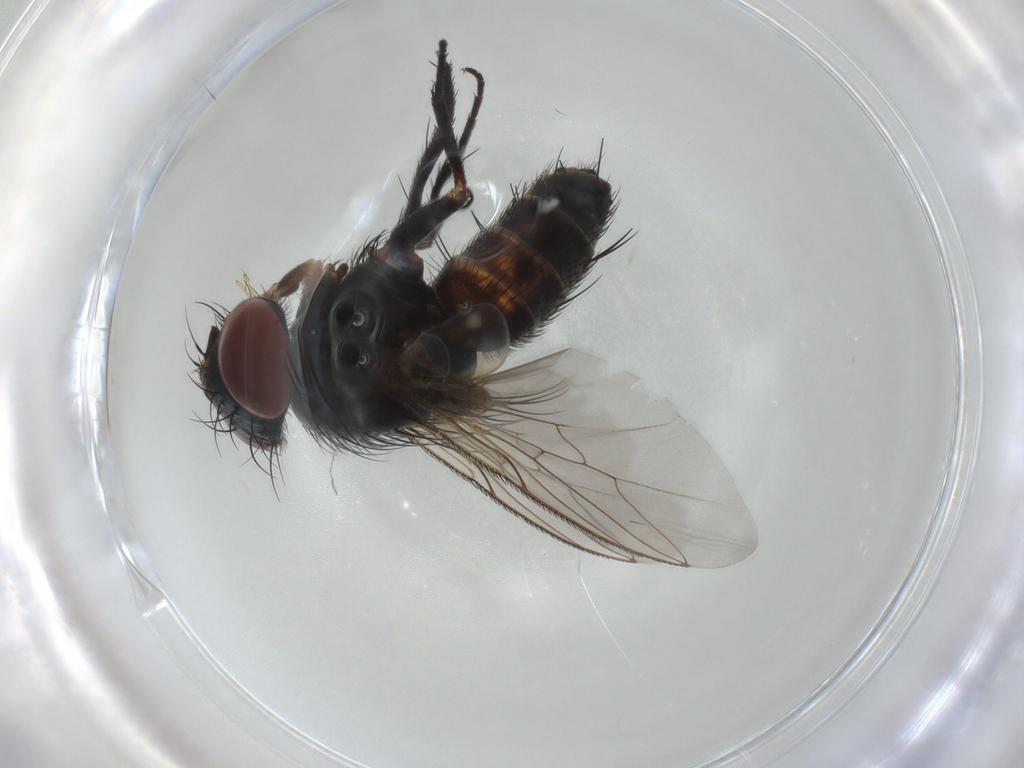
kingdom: Animalia
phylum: Arthropoda
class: Insecta
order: Diptera
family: Sarcophagidae
